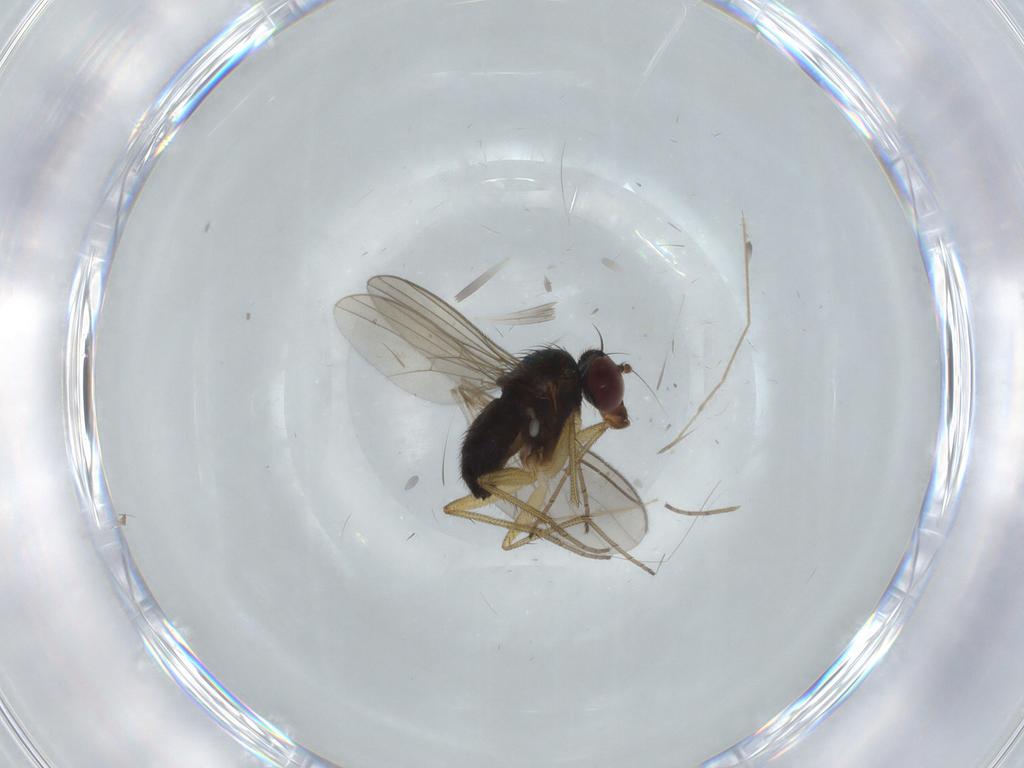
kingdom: Animalia
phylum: Arthropoda
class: Insecta
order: Diptera
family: Dolichopodidae
